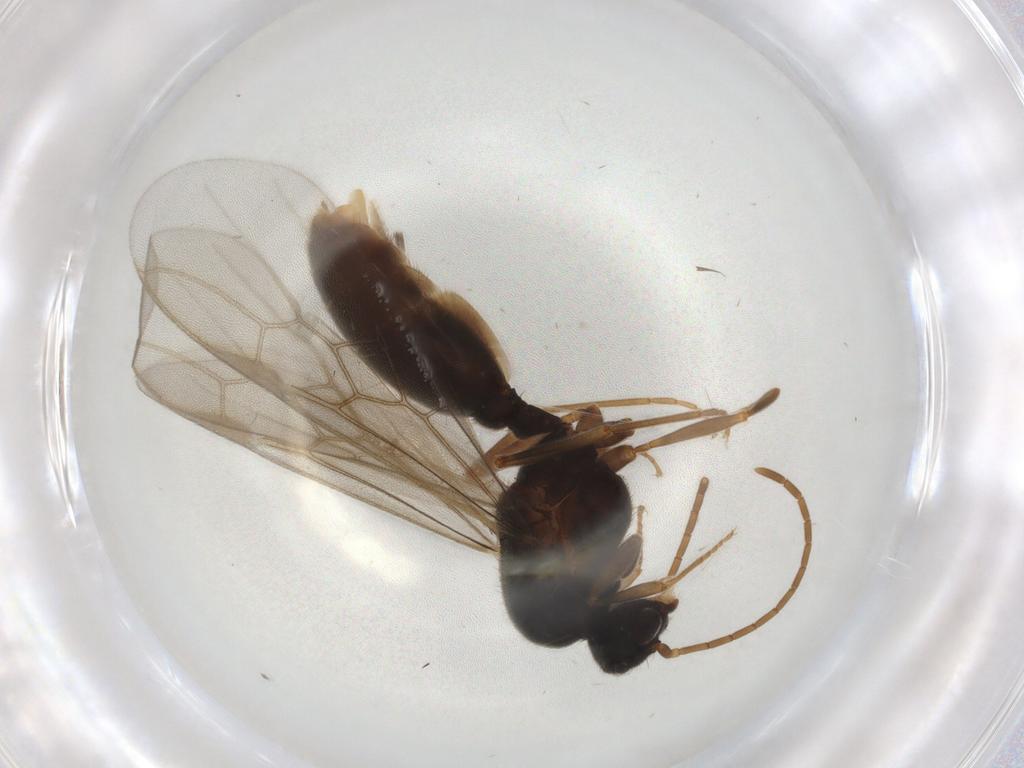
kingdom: Animalia
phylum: Arthropoda
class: Insecta
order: Hymenoptera
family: Formicidae
